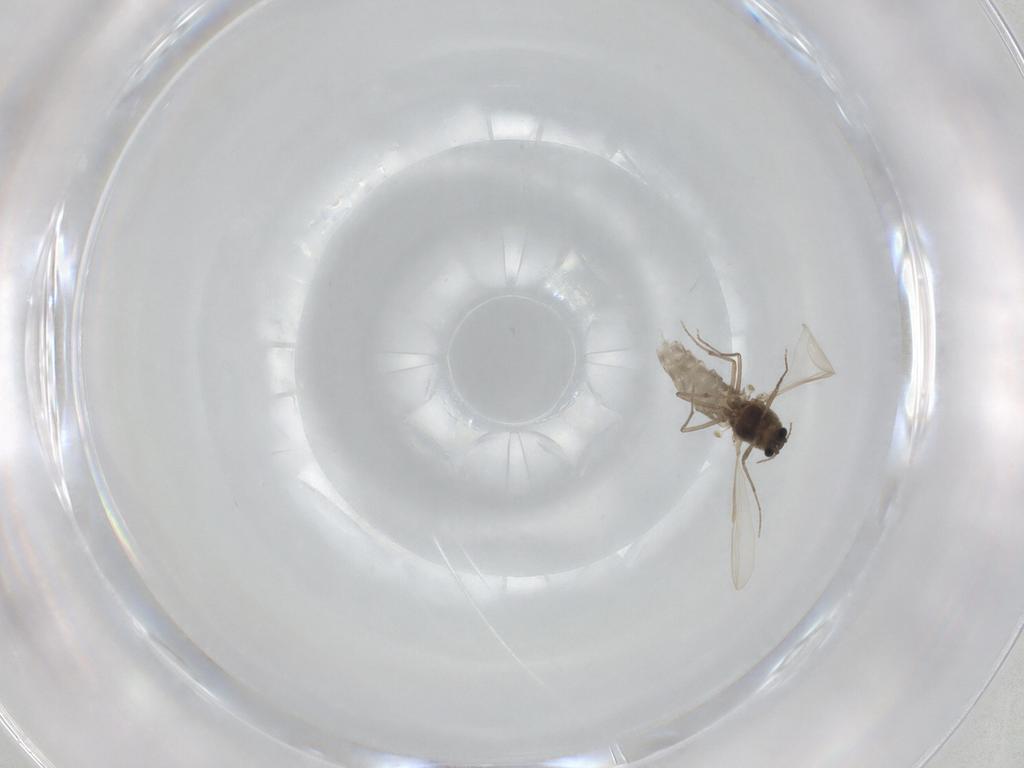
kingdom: Animalia
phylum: Arthropoda
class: Insecta
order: Diptera
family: Chironomidae
